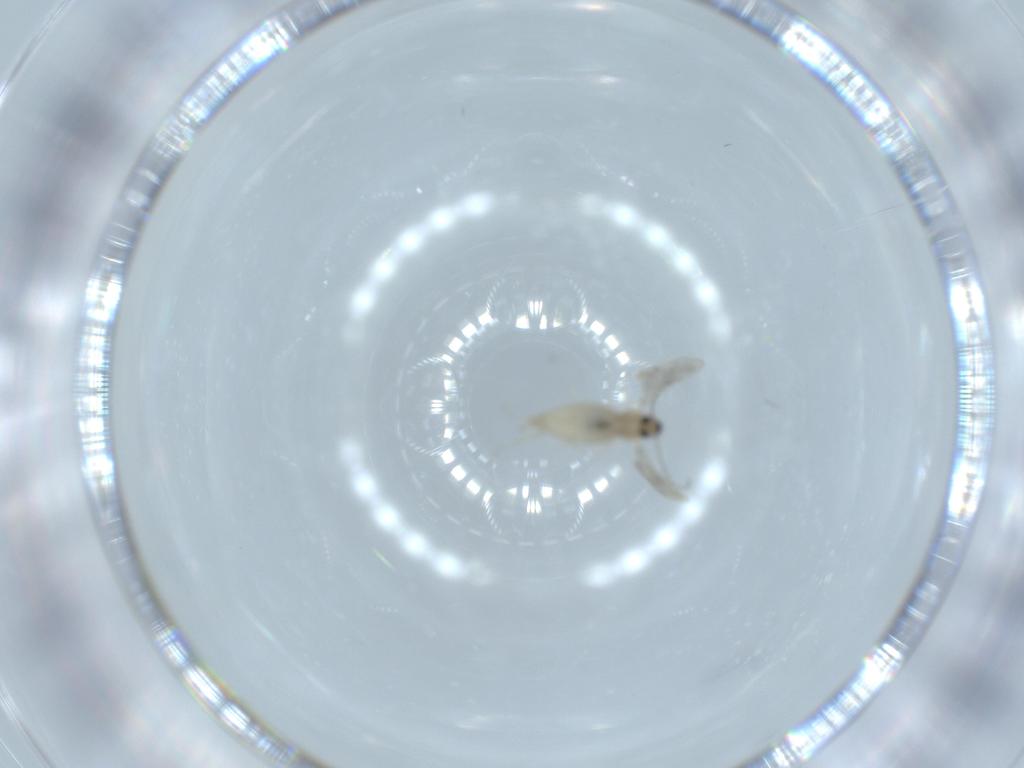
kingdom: Animalia
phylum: Arthropoda
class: Insecta
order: Diptera
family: Cecidomyiidae
